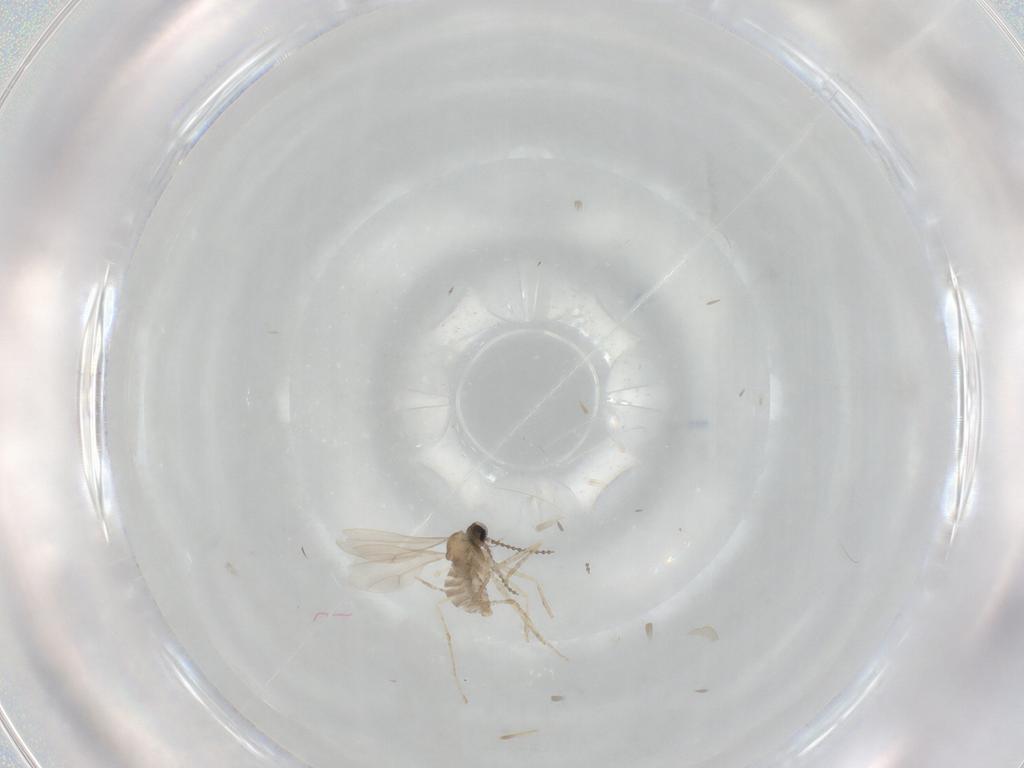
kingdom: Animalia
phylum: Arthropoda
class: Insecta
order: Diptera
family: Cecidomyiidae
